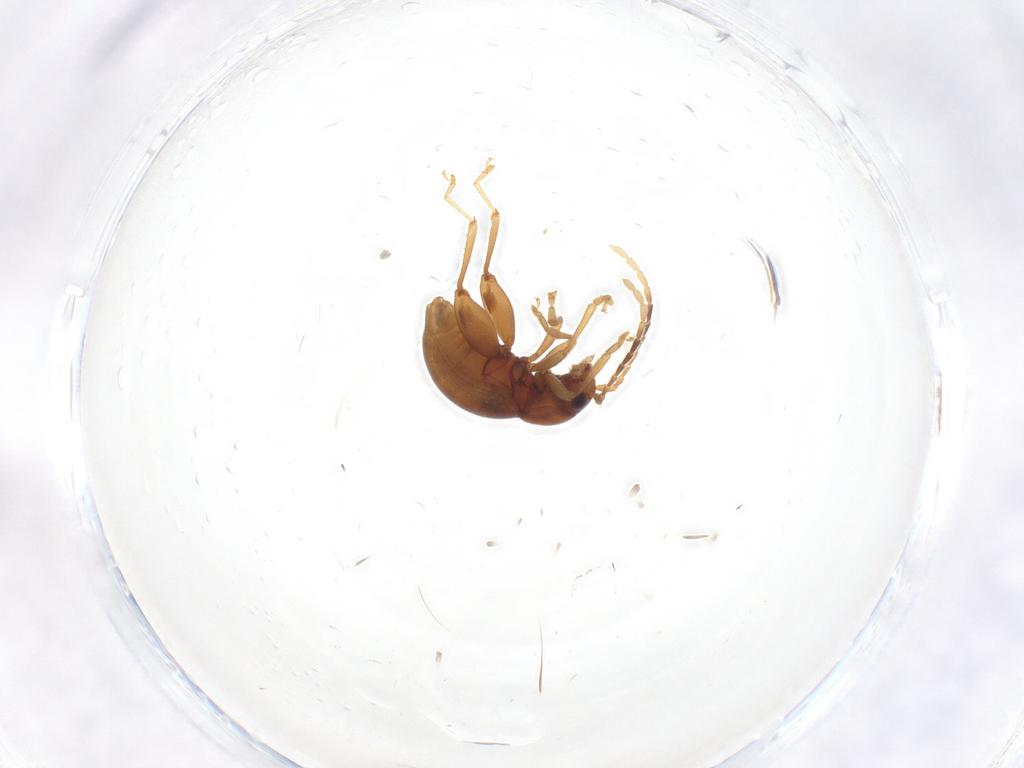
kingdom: Animalia
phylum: Arthropoda
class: Insecta
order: Coleoptera
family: Chrysomelidae
